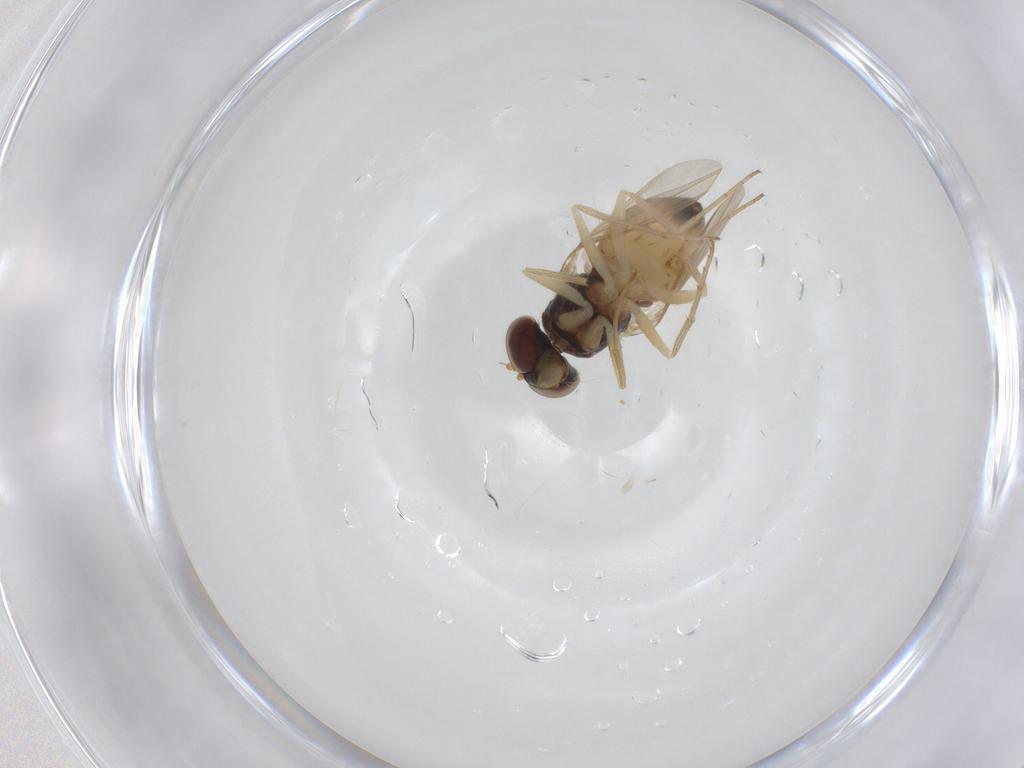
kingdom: Animalia
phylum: Arthropoda
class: Insecta
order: Diptera
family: Dolichopodidae
